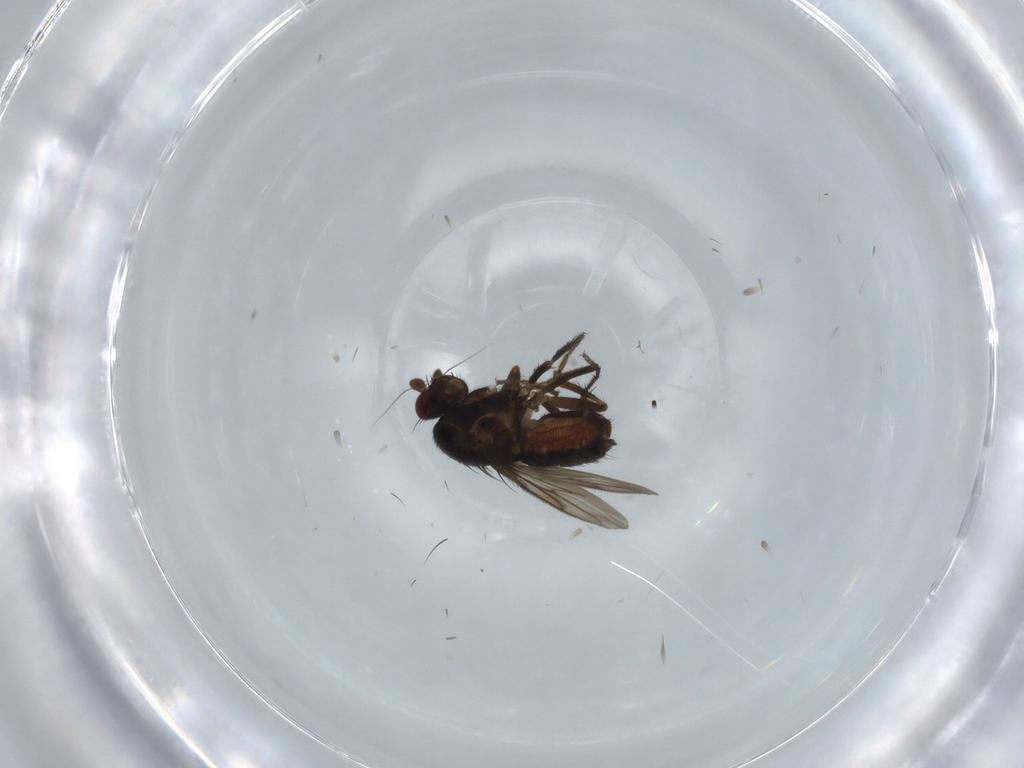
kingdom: Animalia
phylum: Arthropoda
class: Insecta
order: Diptera
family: Sphaeroceridae
